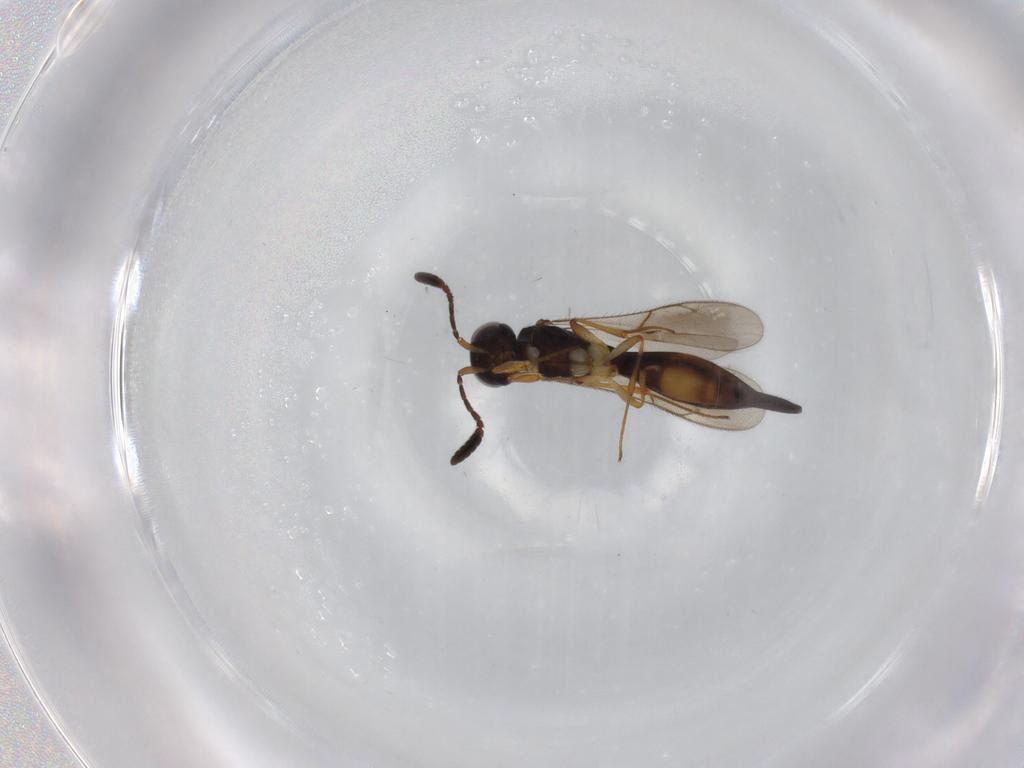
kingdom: Animalia
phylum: Arthropoda
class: Insecta
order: Hymenoptera
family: Scelionidae
